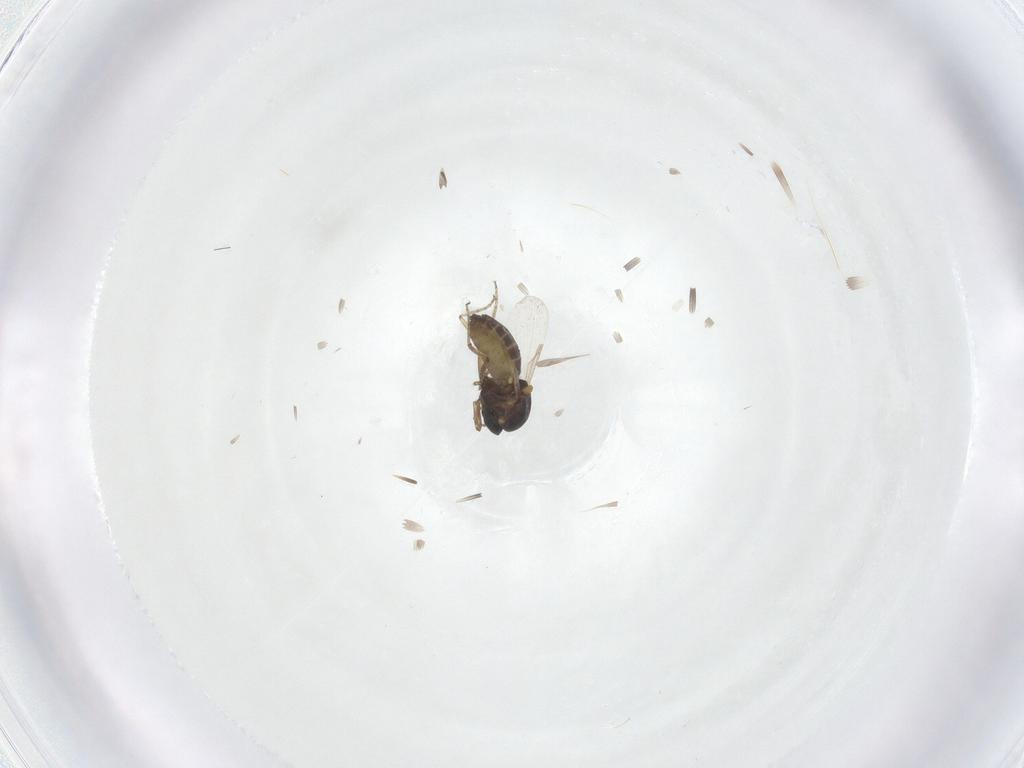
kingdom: Animalia
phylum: Arthropoda
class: Insecta
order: Diptera
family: Ceratopogonidae
